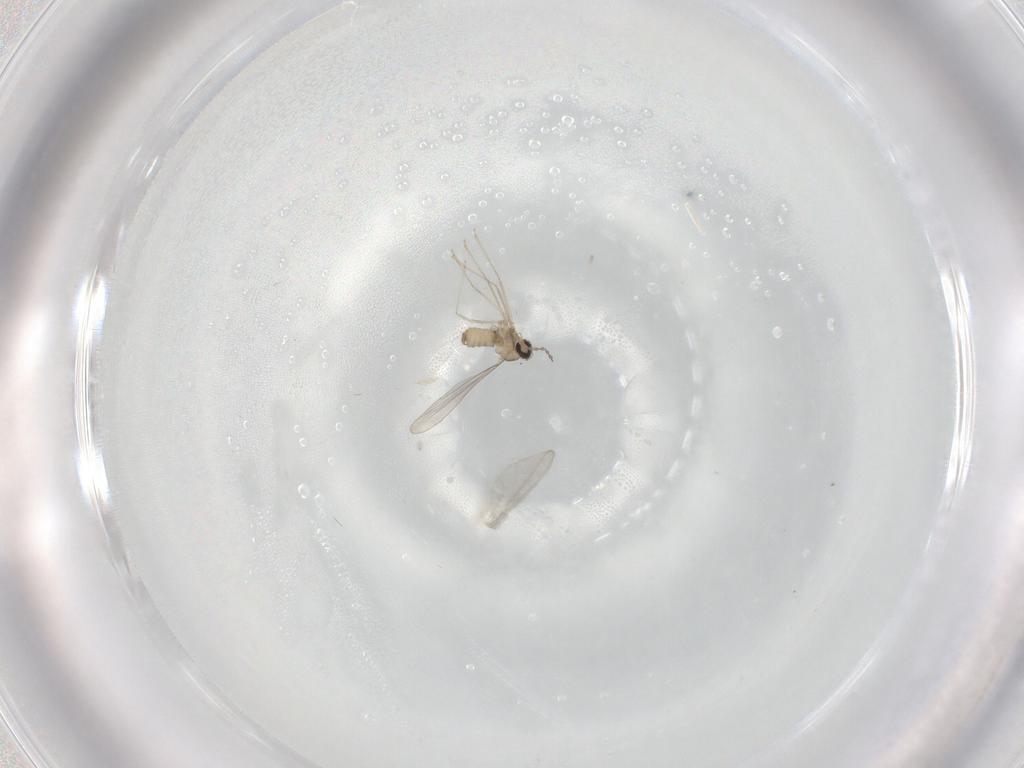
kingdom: Animalia
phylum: Arthropoda
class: Insecta
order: Diptera
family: Cecidomyiidae
